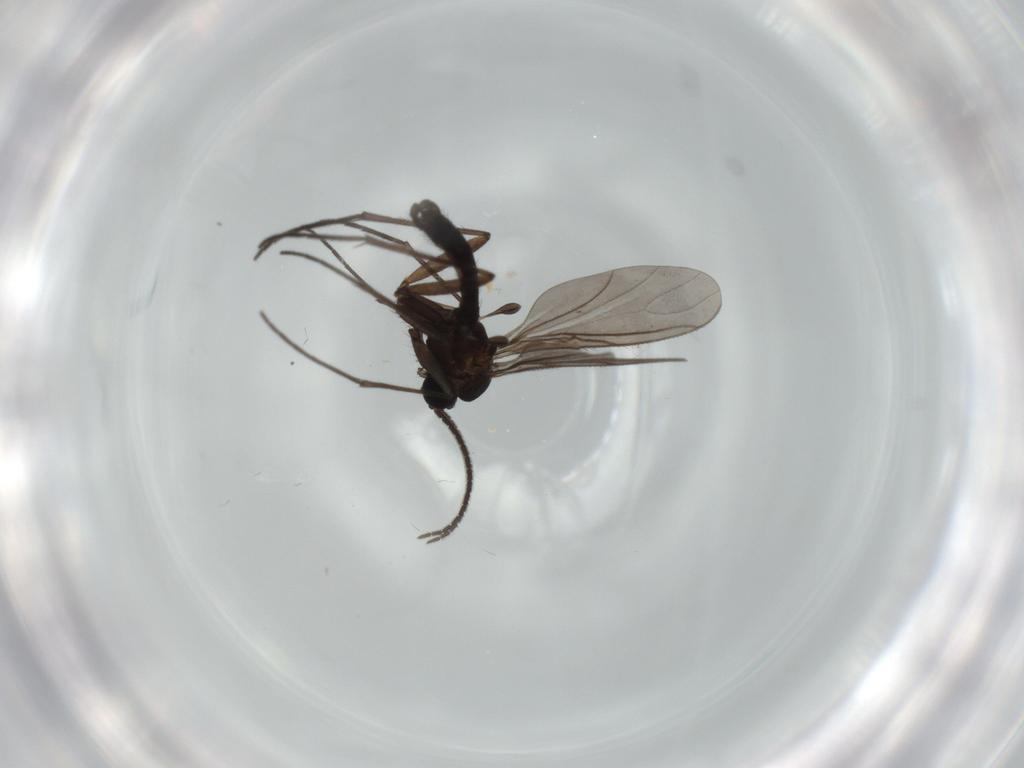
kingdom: Animalia
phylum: Arthropoda
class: Insecta
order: Diptera
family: Sciaridae
